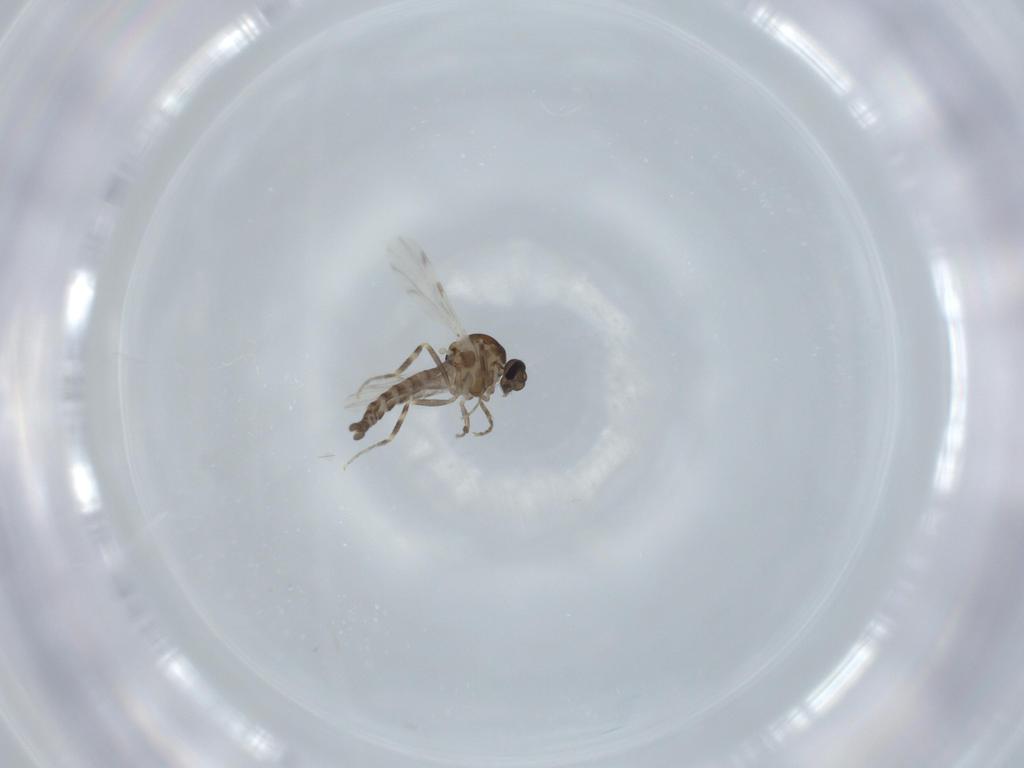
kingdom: Animalia
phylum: Arthropoda
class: Insecta
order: Diptera
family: Ceratopogonidae
